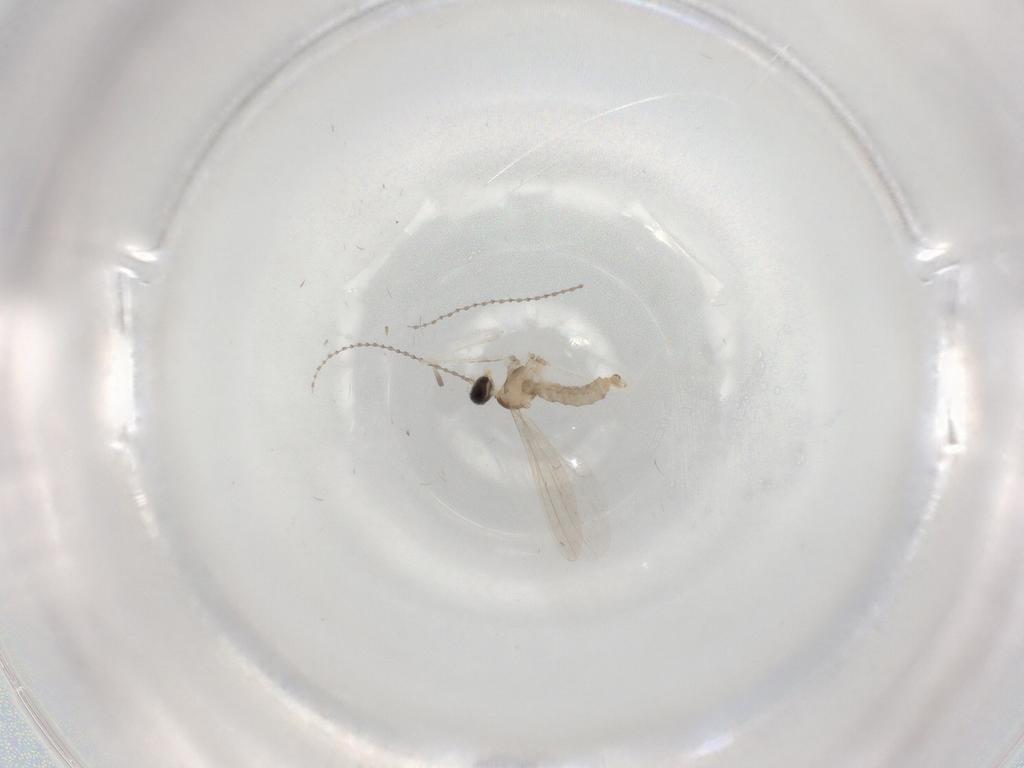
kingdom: Animalia
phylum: Arthropoda
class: Insecta
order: Diptera
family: Cecidomyiidae
